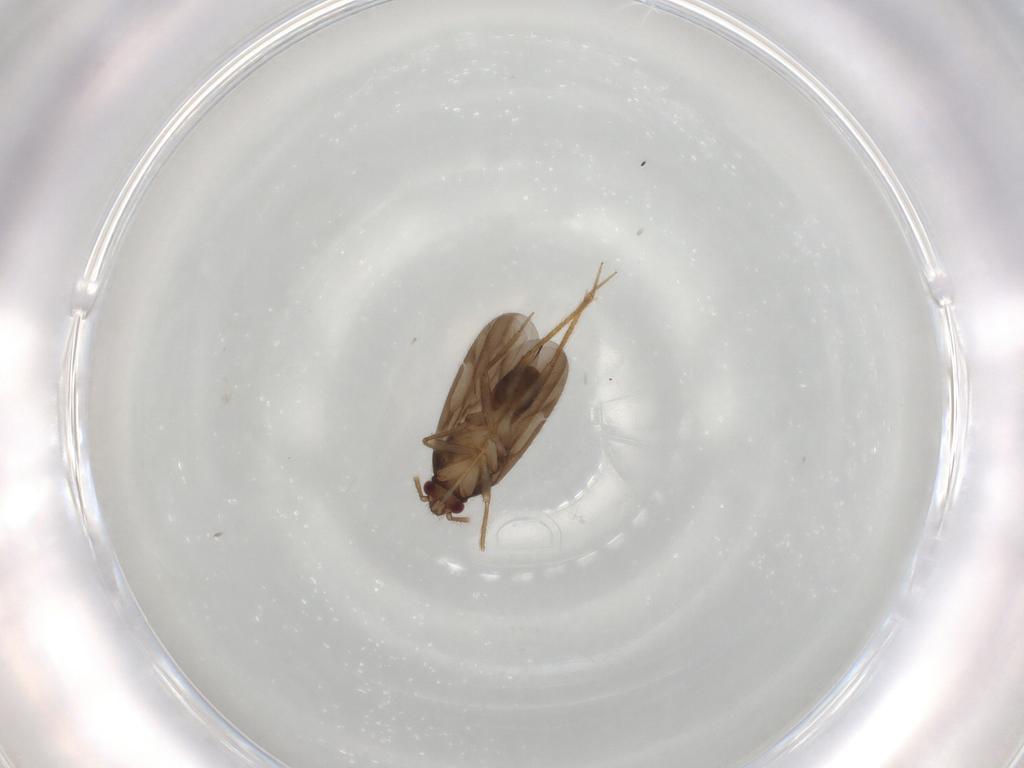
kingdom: Animalia
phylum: Arthropoda
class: Insecta
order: Hemiptera
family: Ceratocombidae
